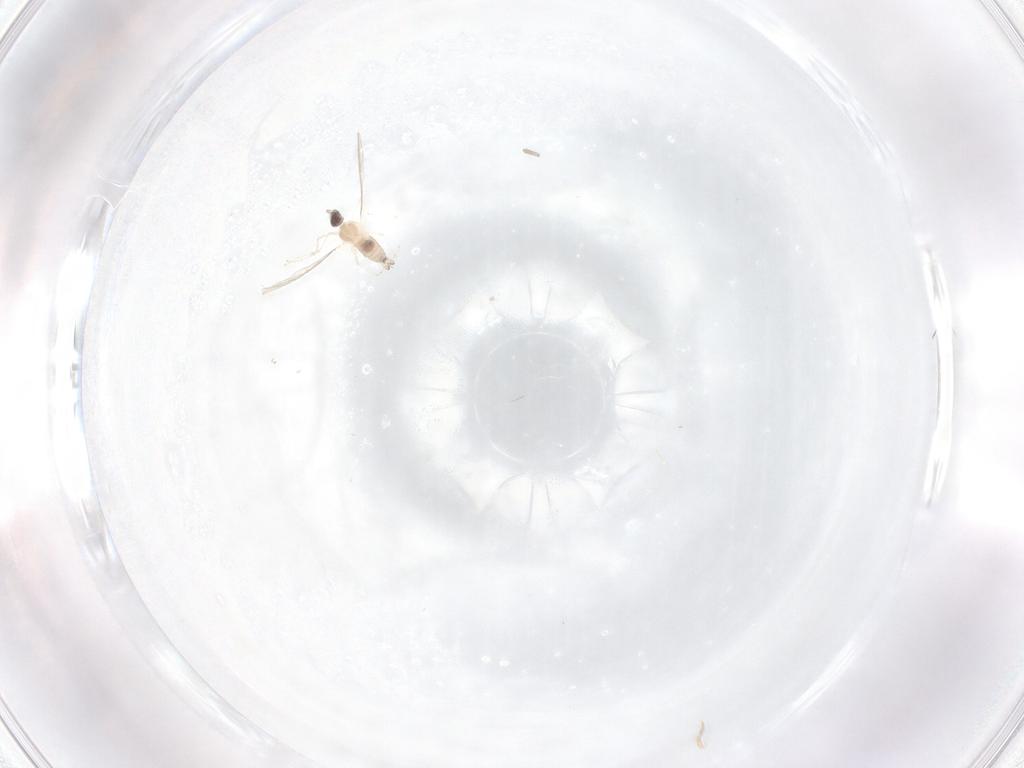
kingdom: Animalia
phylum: Arthropoda
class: Insecta
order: Diptera
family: Cecidomyiidae
